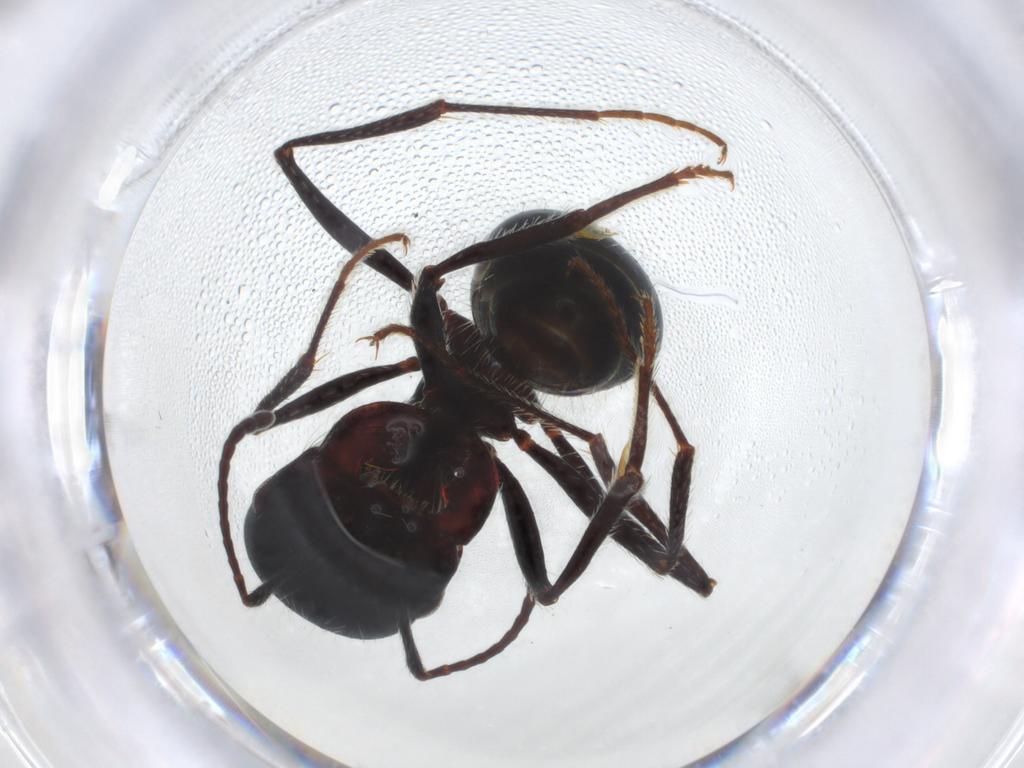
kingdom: Animalia
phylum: Arthropoda
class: Insecta
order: Hymenoptera
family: Formicidae
